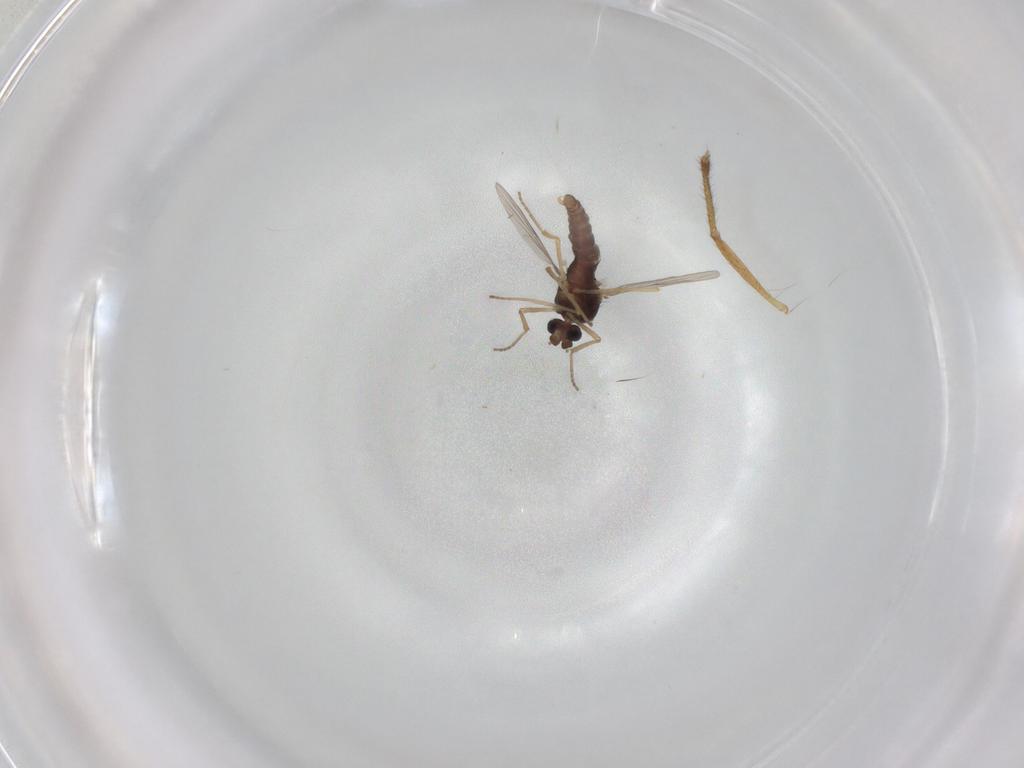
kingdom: Animalia
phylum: Arthropoda
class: Insecta
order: Diptera
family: Ceratopogonidae
